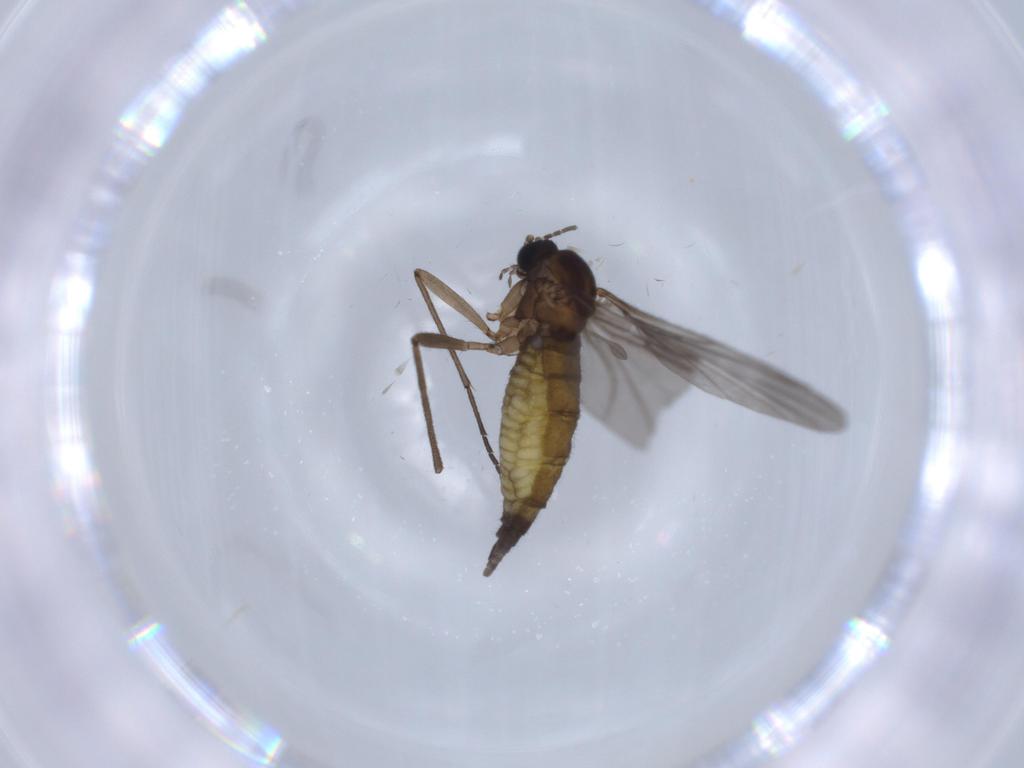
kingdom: Animalia
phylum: Arthropoda
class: Insecta
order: Diptera
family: Sciaridae
